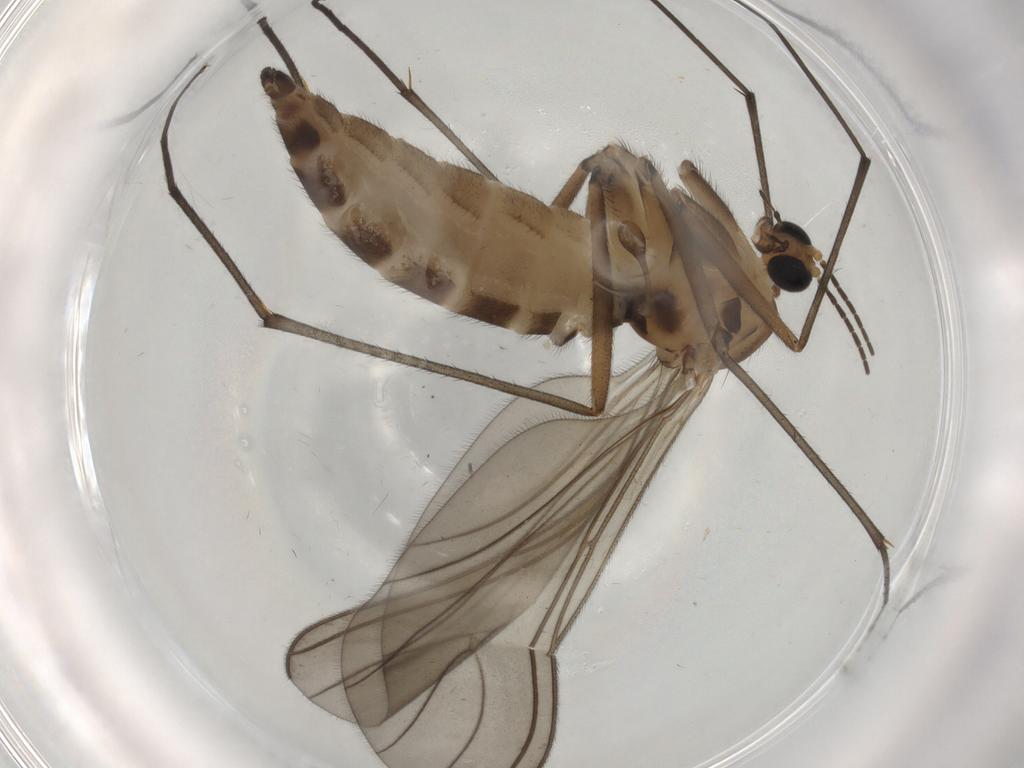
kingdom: Animalia
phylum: Arthropoda
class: Insecta
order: Diptera
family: Sciaridae
